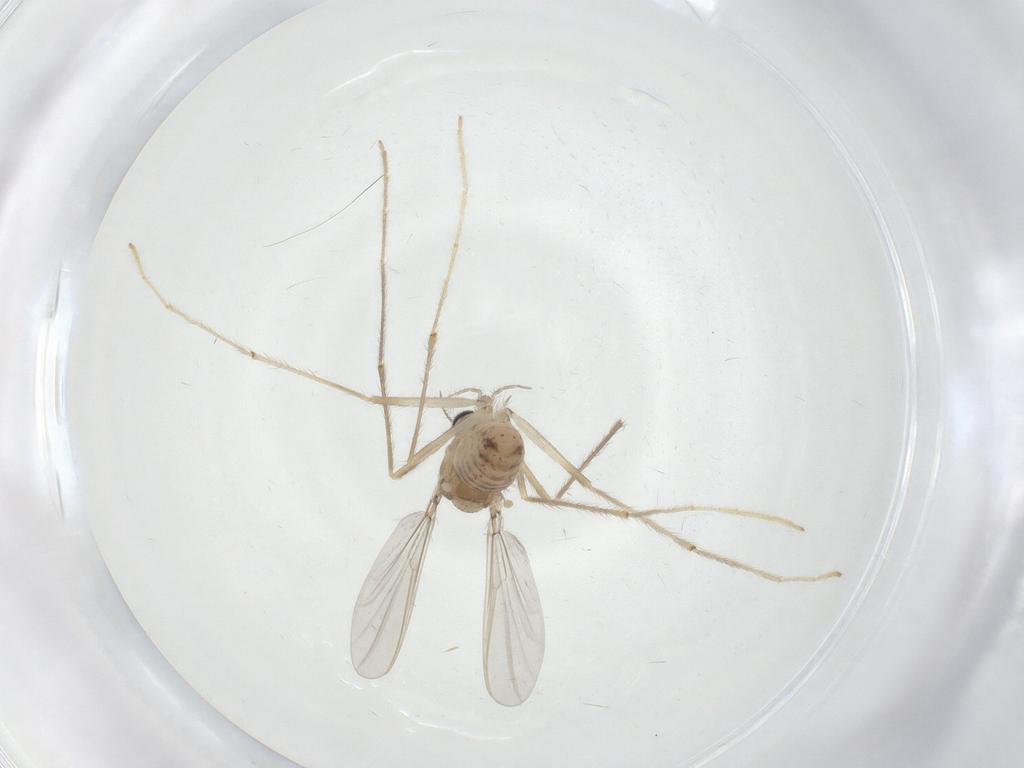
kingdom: Animalia
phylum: Arthropoda
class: Insecta
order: Diptera
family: Chironomidae
